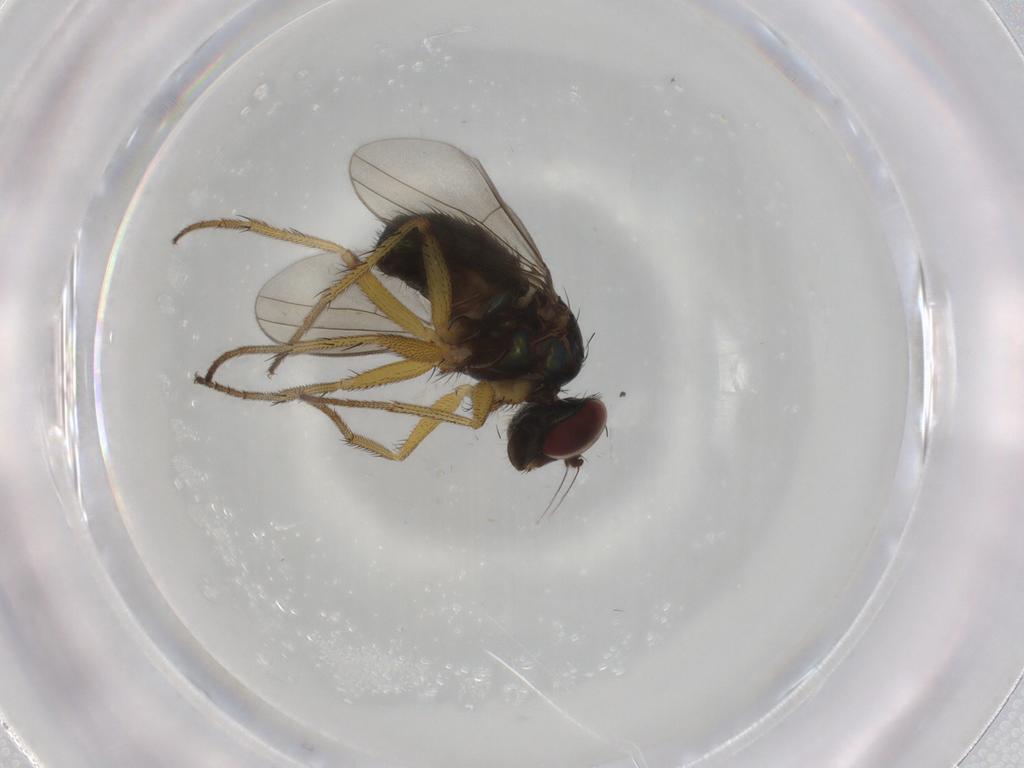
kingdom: Animalia
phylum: Arthropoda
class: Insecta
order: Diptera
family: Dolichopodidae
